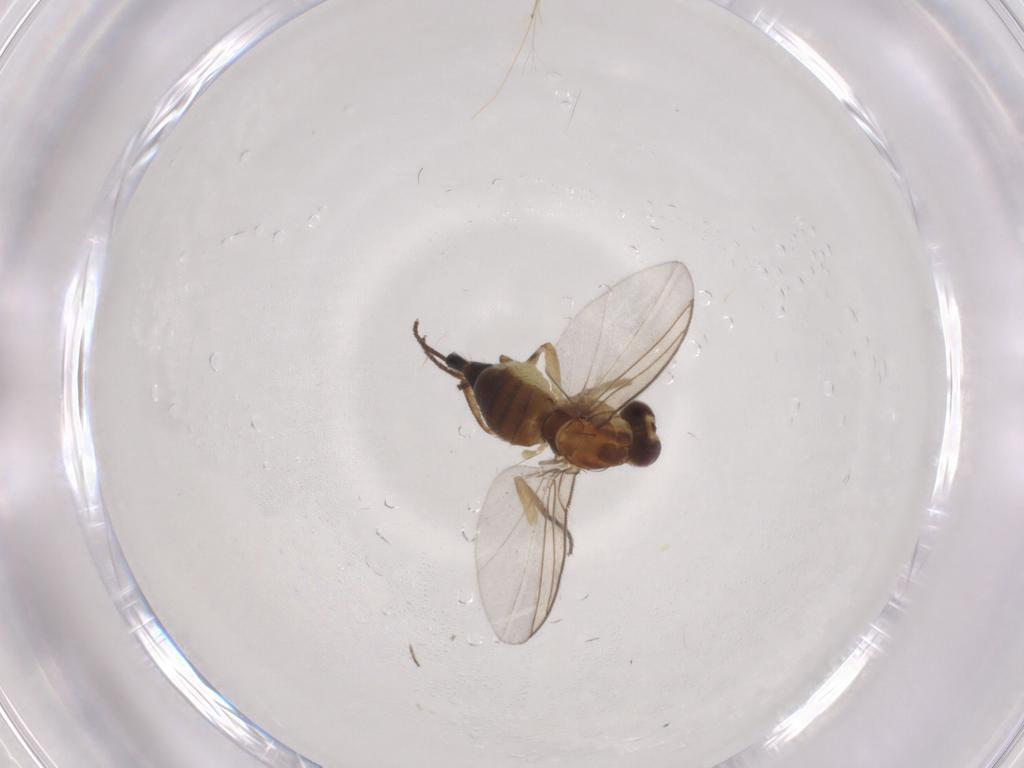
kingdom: Animalia
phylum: Arthropoda
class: Insecta
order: Diptera
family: Agromyzidae
